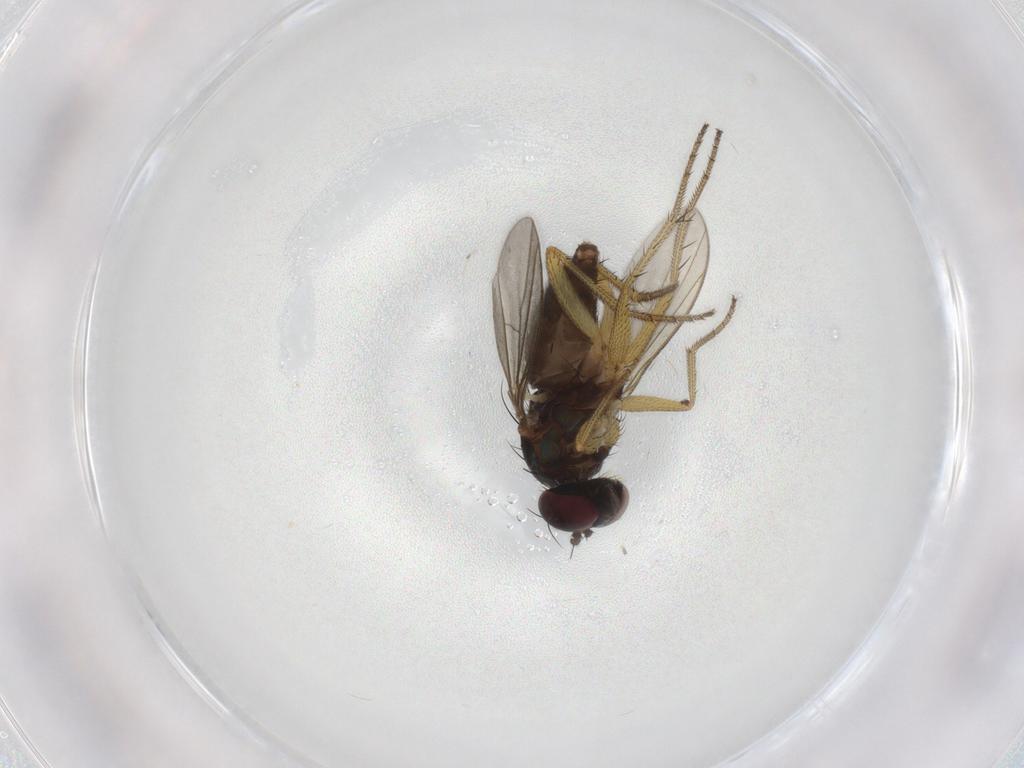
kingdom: Animalia
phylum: Arthropoda
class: Insecta
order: Diptera
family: Dolichopodidae
